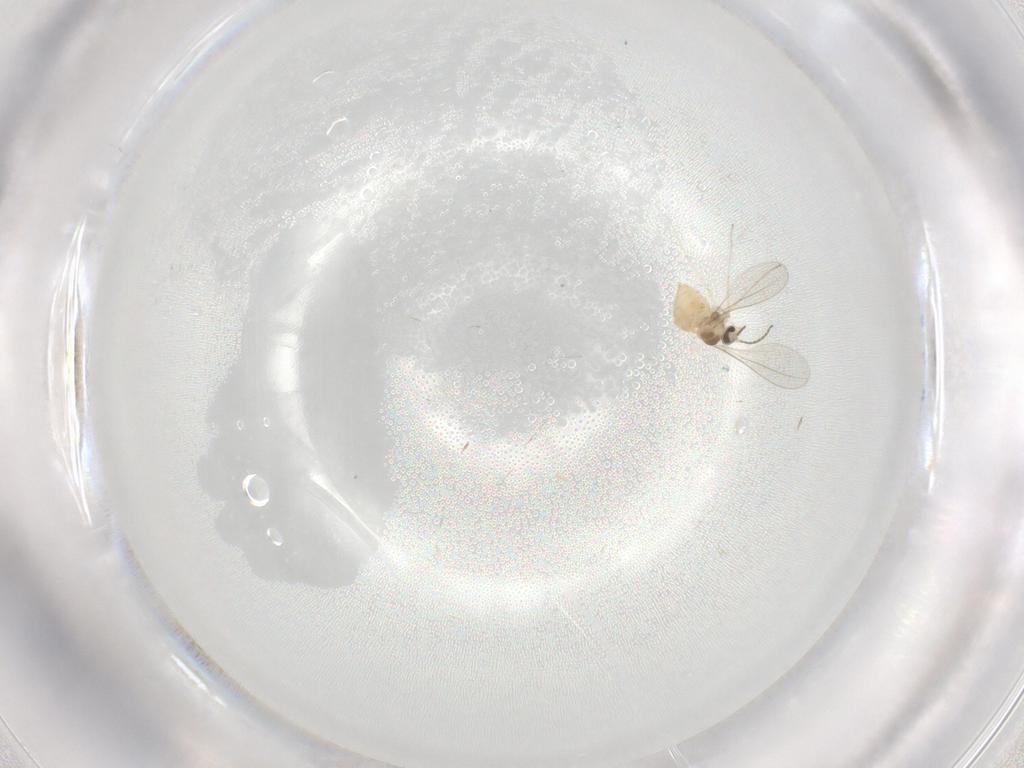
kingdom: Animalia
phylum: Arthropoda
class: Insecta
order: Diptera
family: Cecidomyiidae
